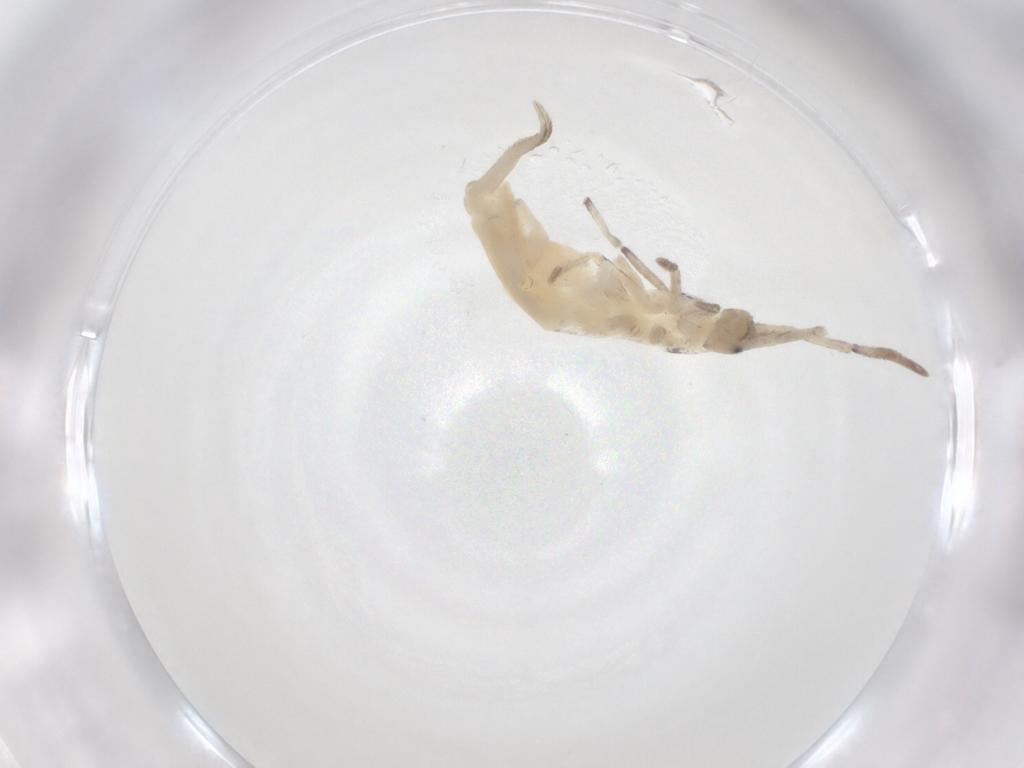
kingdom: Animalia
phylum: Arthropoda
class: Collembola
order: Entomobryomorpha
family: Entomobryidae
